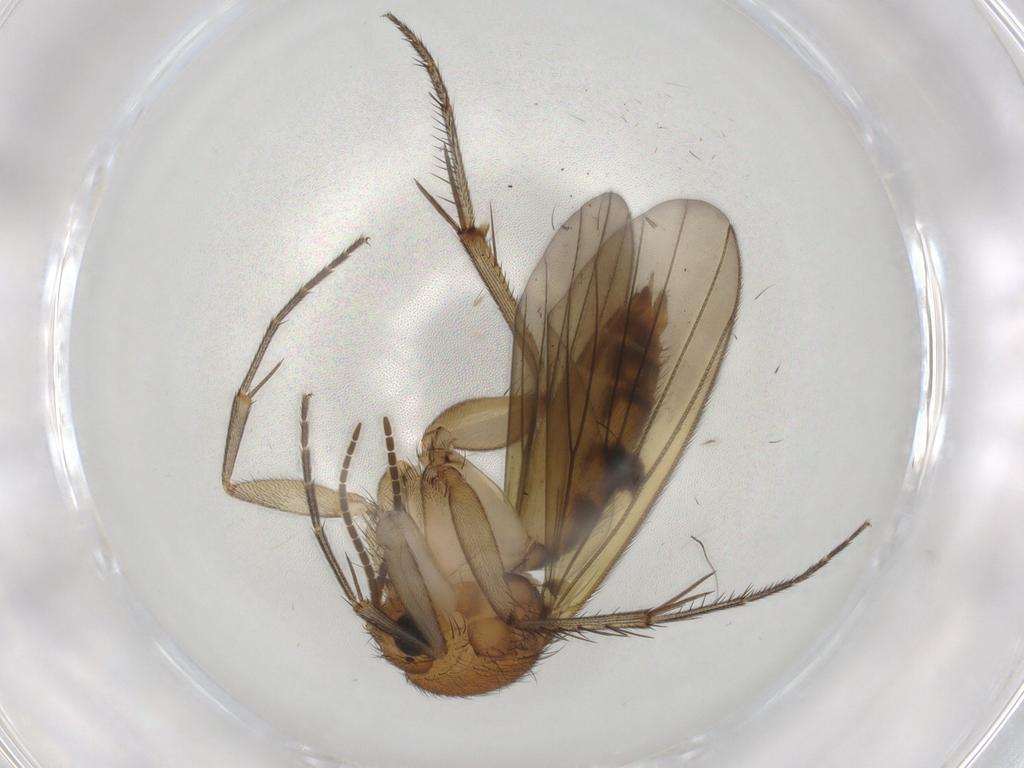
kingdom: Animalia
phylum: Arthropoda
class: Insecta
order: Diptera
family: Mycetophilidae
